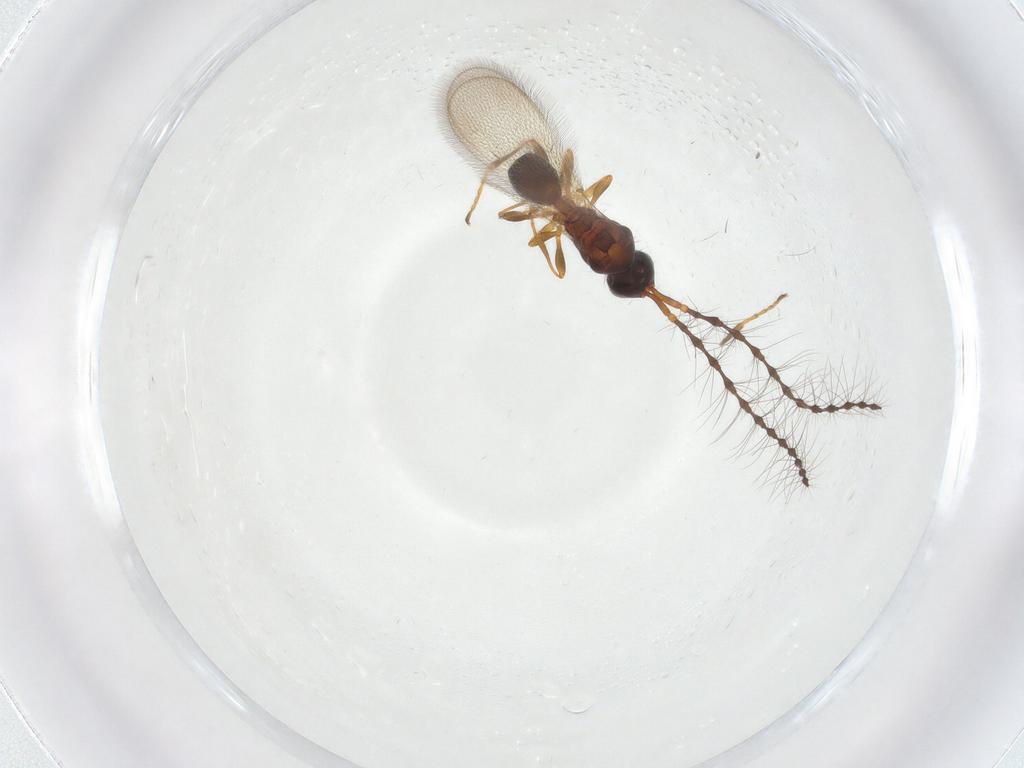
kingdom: Animalia
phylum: Arthropoda
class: Insecta
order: Hymenoptera
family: Diapriidae
